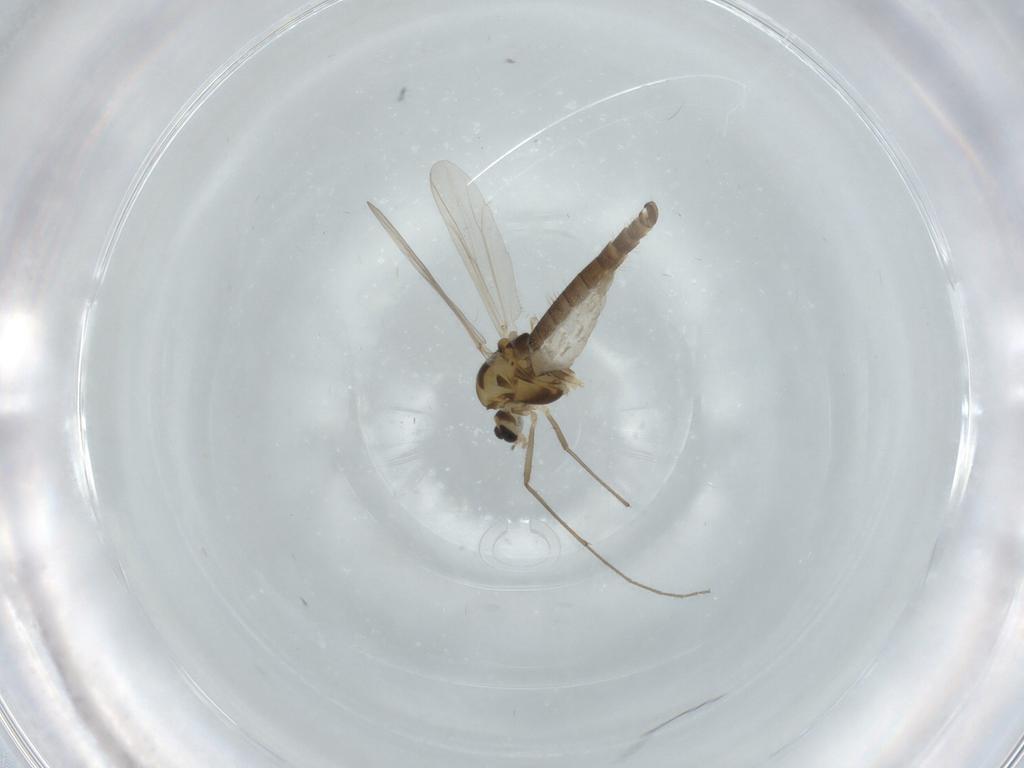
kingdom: Animalia
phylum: Arthropoda
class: Insecta
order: Diptera
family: Chironomidae
